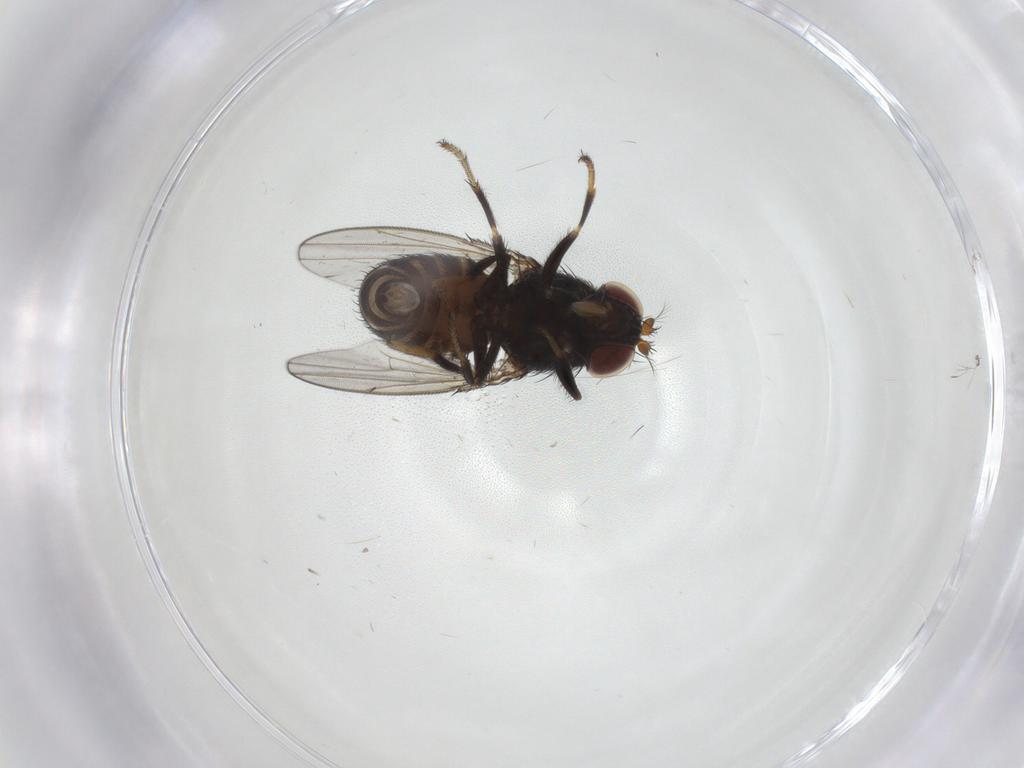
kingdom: Animalia
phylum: Arthropoda
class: Insecta
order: Diptera
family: Ephydridae
